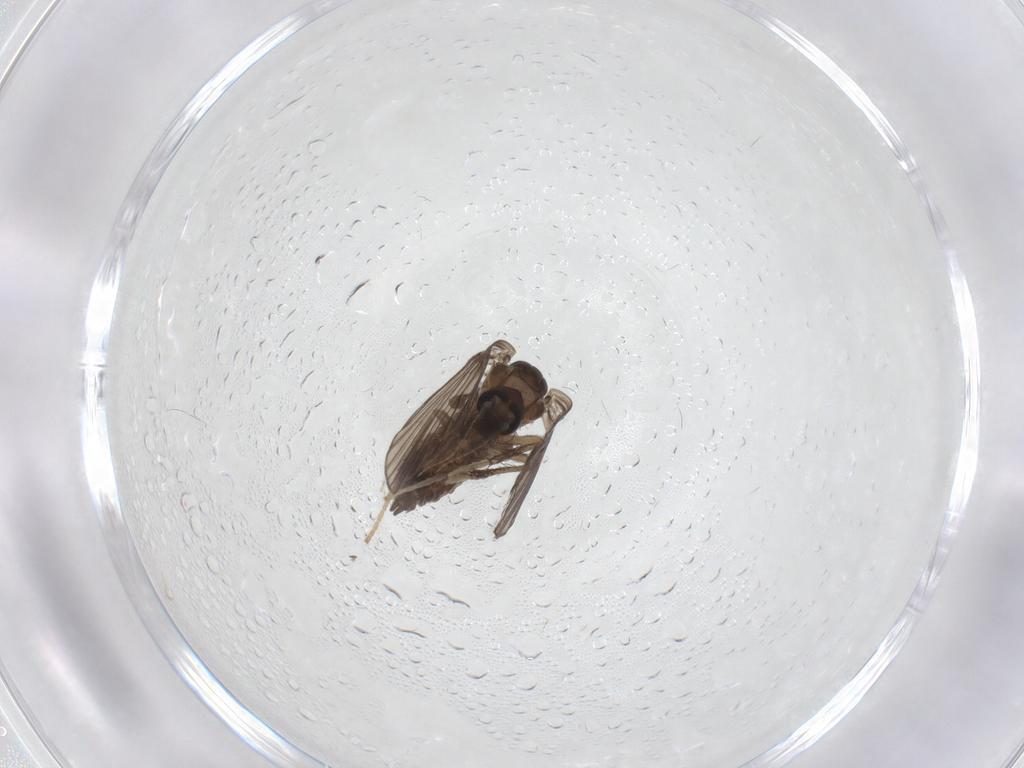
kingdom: Animalia
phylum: Arthropoda
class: Insecta
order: Diptera
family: Psychodidae
